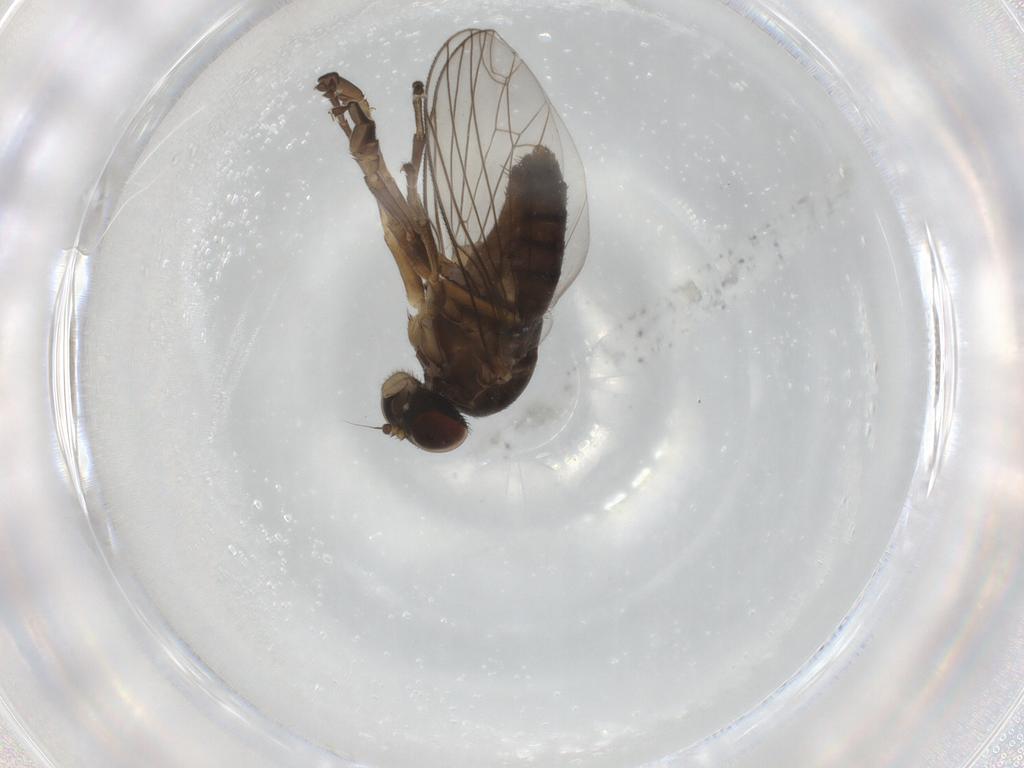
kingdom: Animalia
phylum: Arthropoda
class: Insecta
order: Diptera
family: Platypezidae
